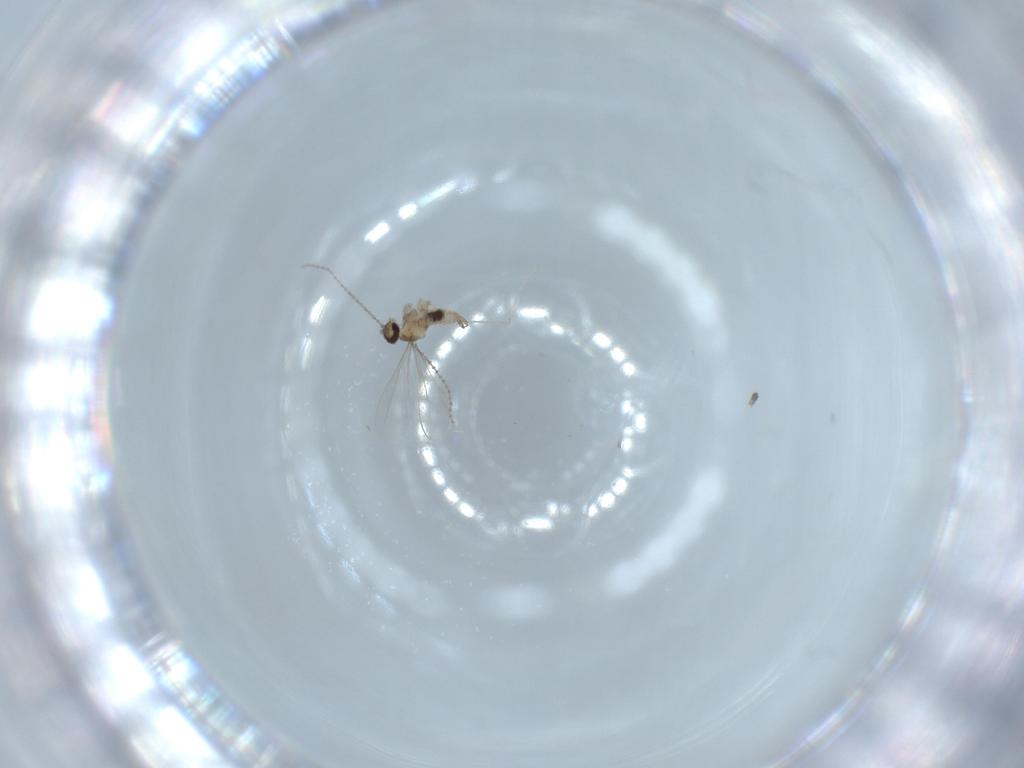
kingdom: Animalia
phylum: Arthropoda
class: Insecta
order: Diptera
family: Cecidomyiidae
